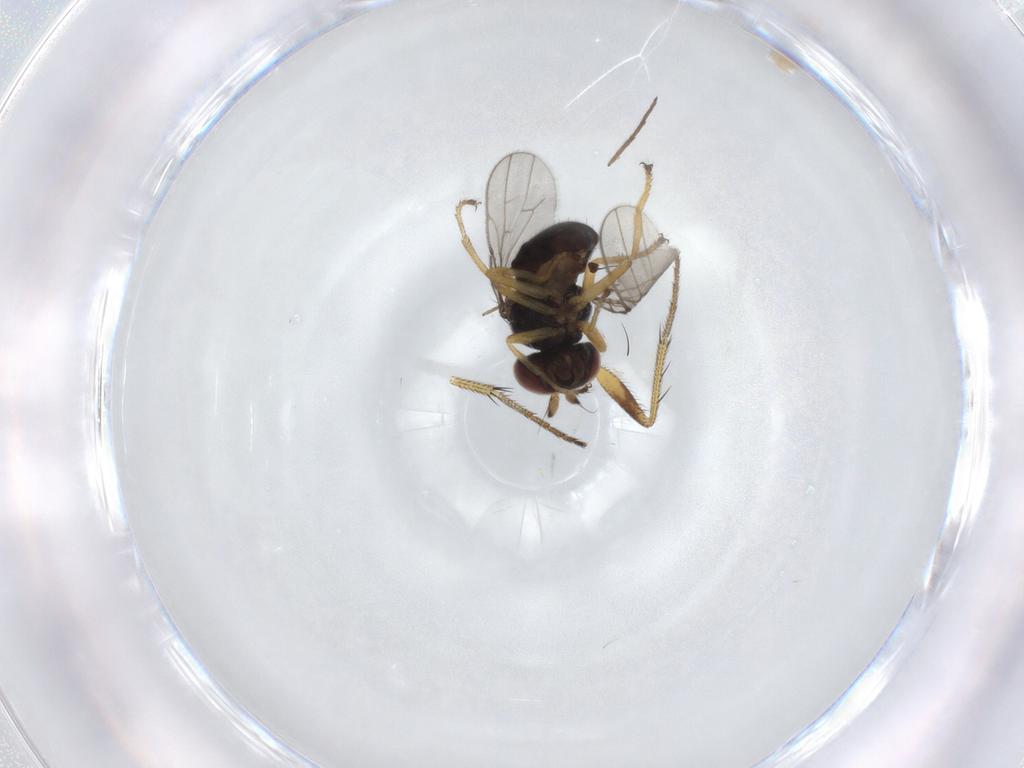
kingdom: Animalia
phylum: Arthropoda
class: Insecta
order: Diptera
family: Ephydridae
